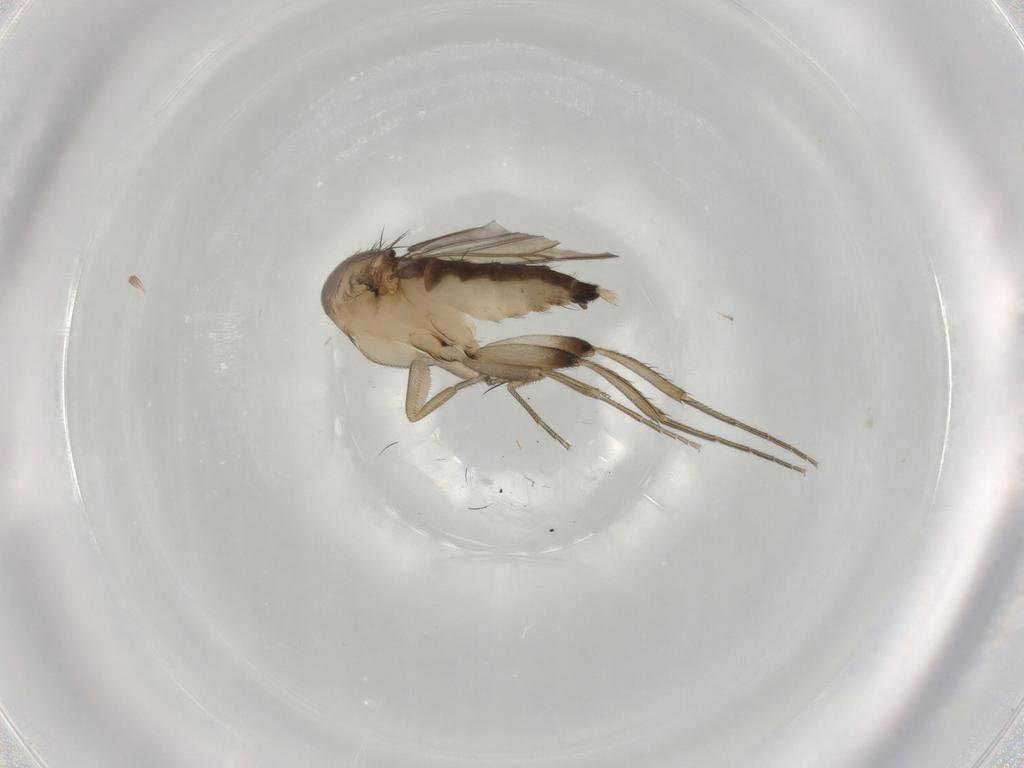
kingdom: Animalia
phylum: Arthropoda
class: Insecta
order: Diptera
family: Phoridae
